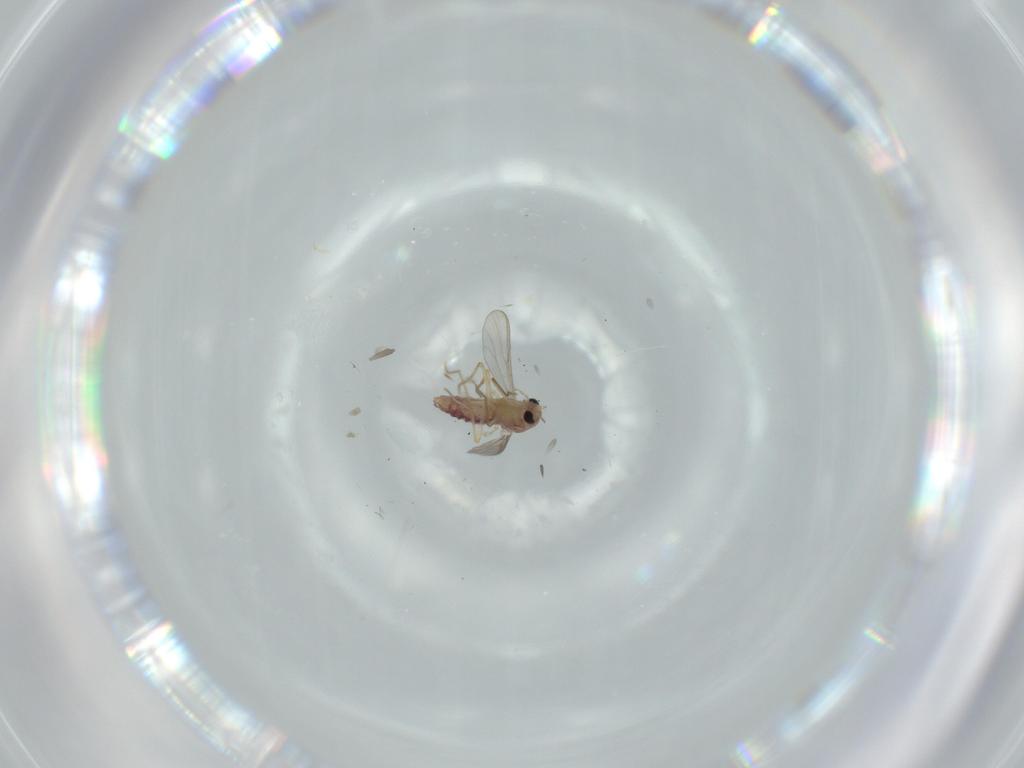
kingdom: Animalia
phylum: Arthropoda
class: Insecta
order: Diptera
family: Chironomidae
